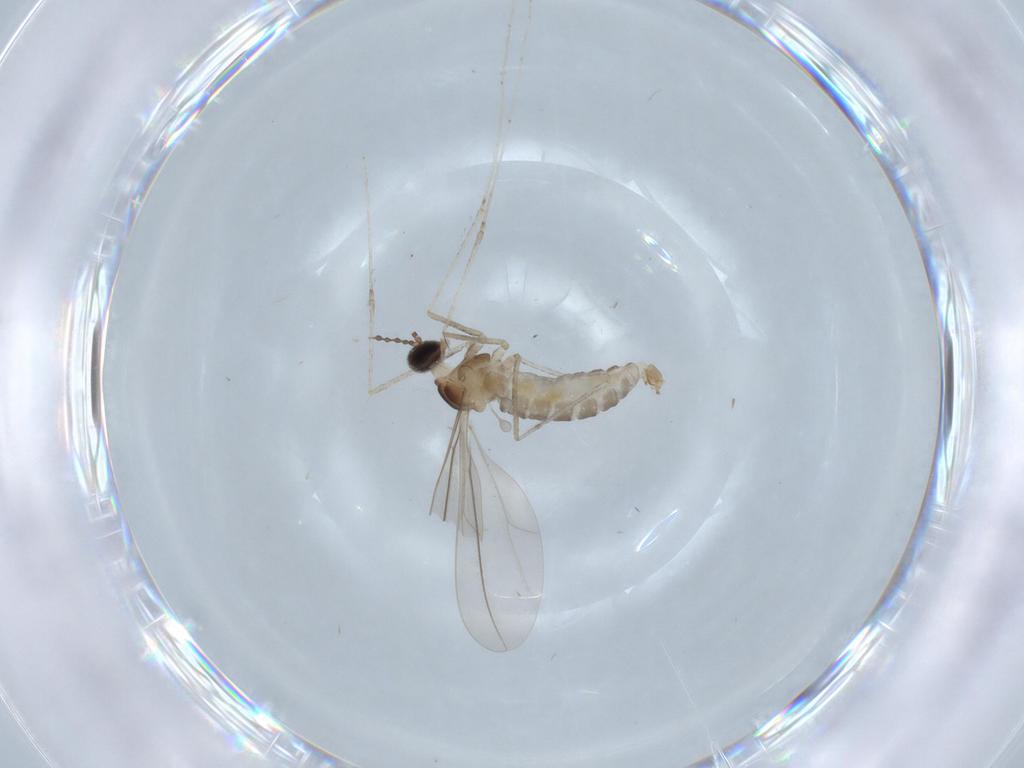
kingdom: Animalia
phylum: Arthropoda
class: Insecta
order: Diptera
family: Cecidomyiidae
